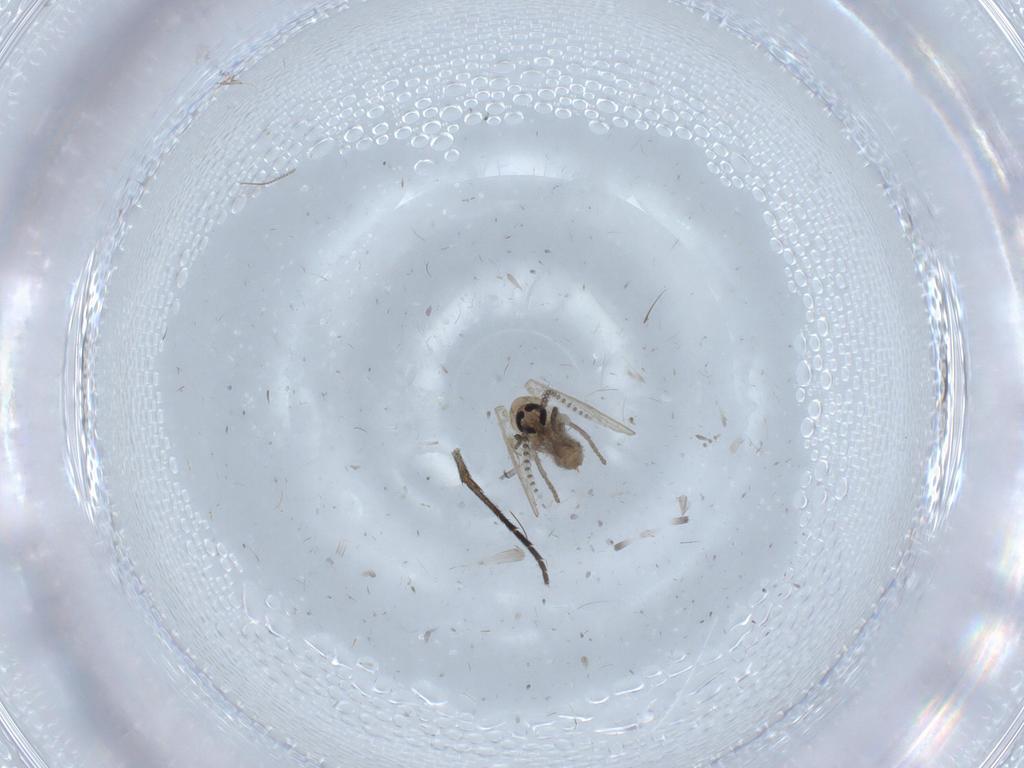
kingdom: Animalia
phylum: Arthropoda
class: Insecta
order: Diptera
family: Psychodidae
